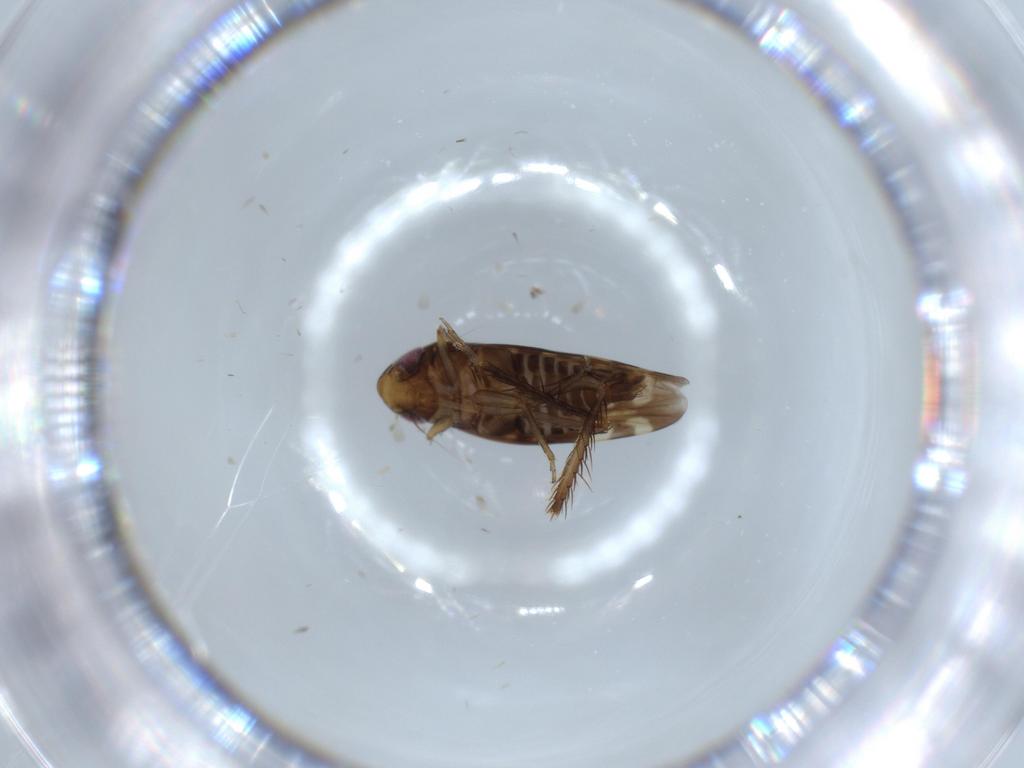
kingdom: Animalia
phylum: Arthropoda
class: Insecta
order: Hemiptera
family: Cicadellidae
